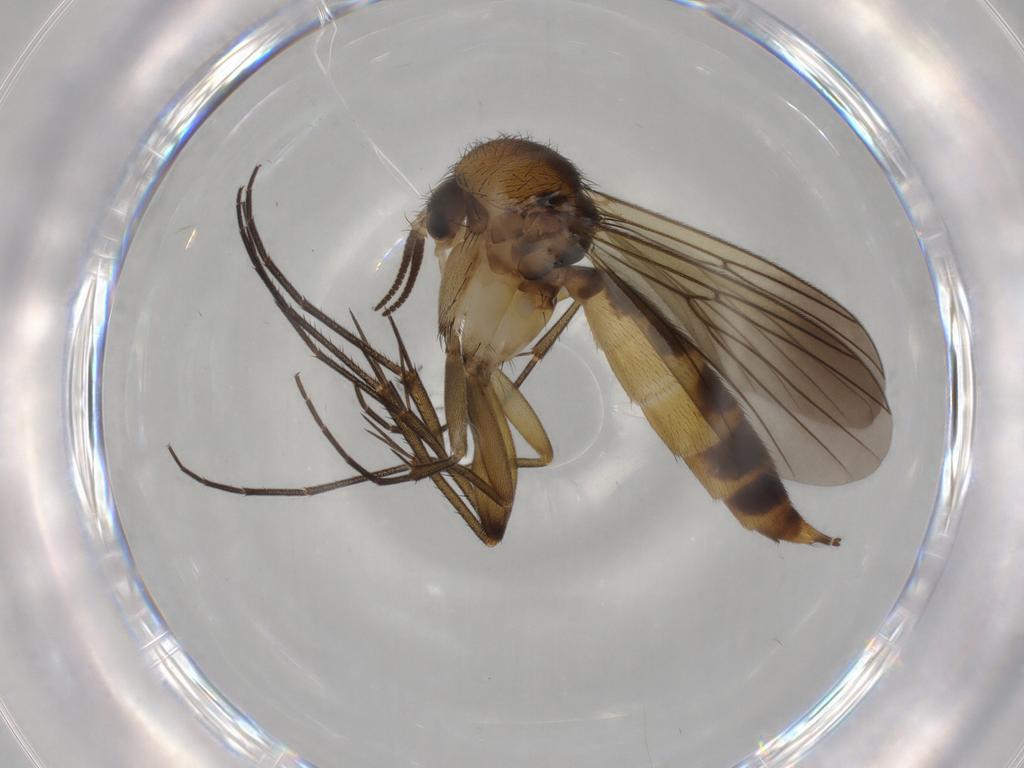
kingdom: Animalia
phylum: Arthropoda
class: Insecta
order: Diptera
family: Mycetophilidae
